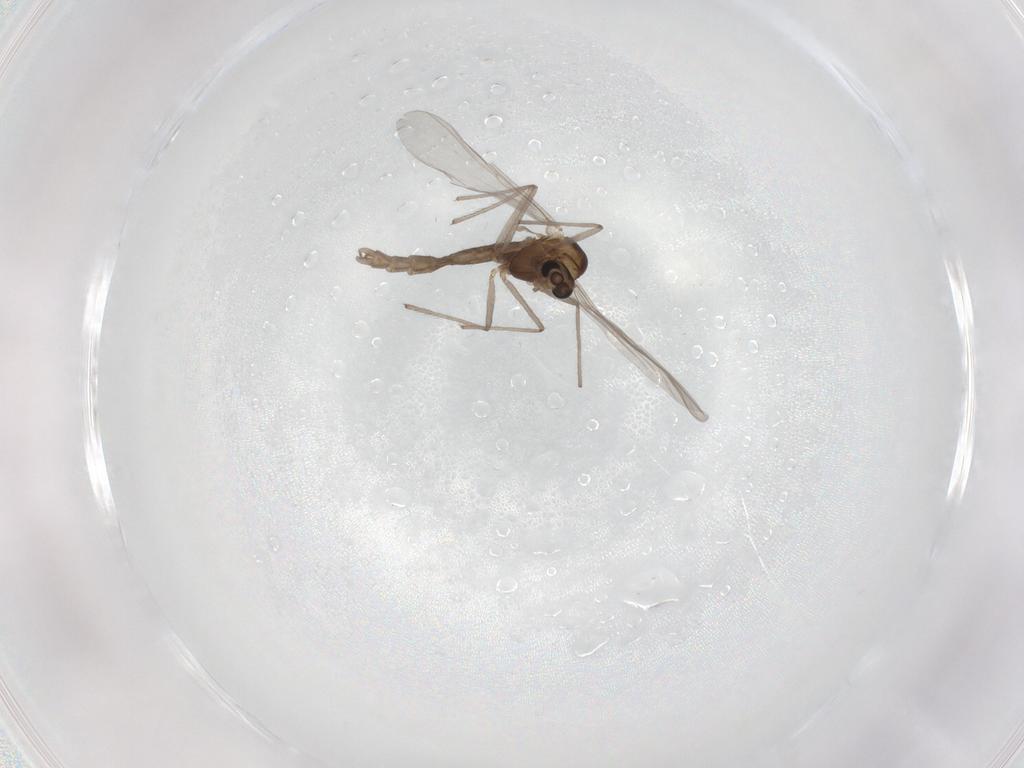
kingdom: Animalia
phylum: Arthropoda
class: Insecta
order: Diptera
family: Chironomidae
